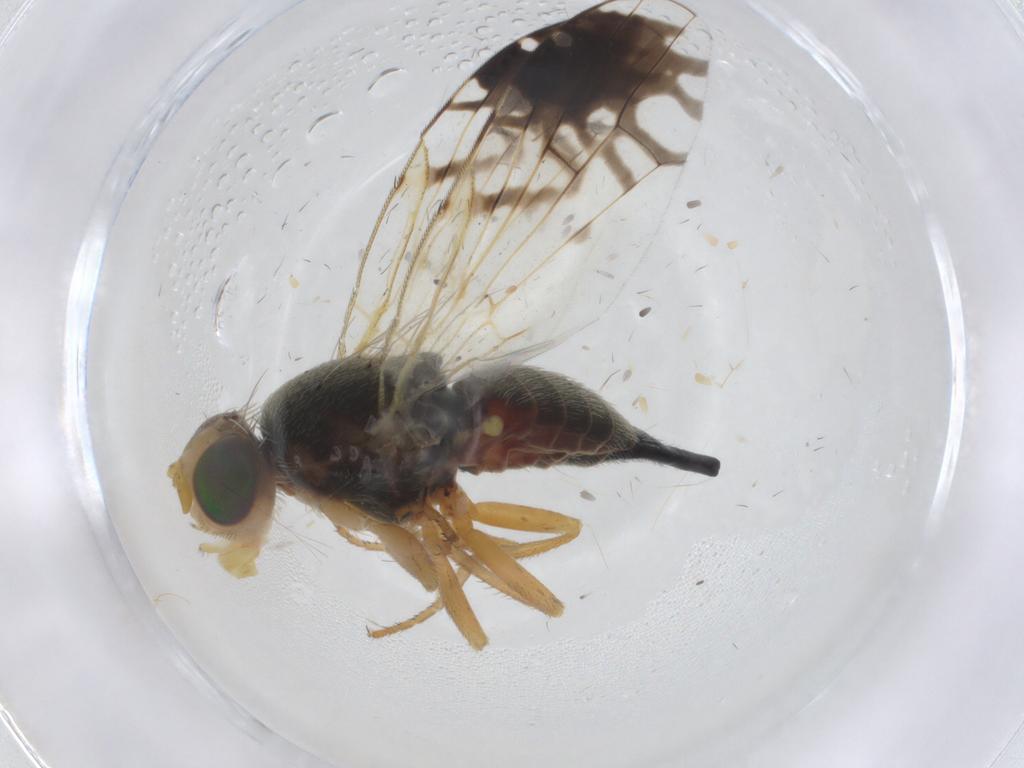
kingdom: Animalia
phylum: Arthropoda
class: Insecta
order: Diptera
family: Tephritidae
